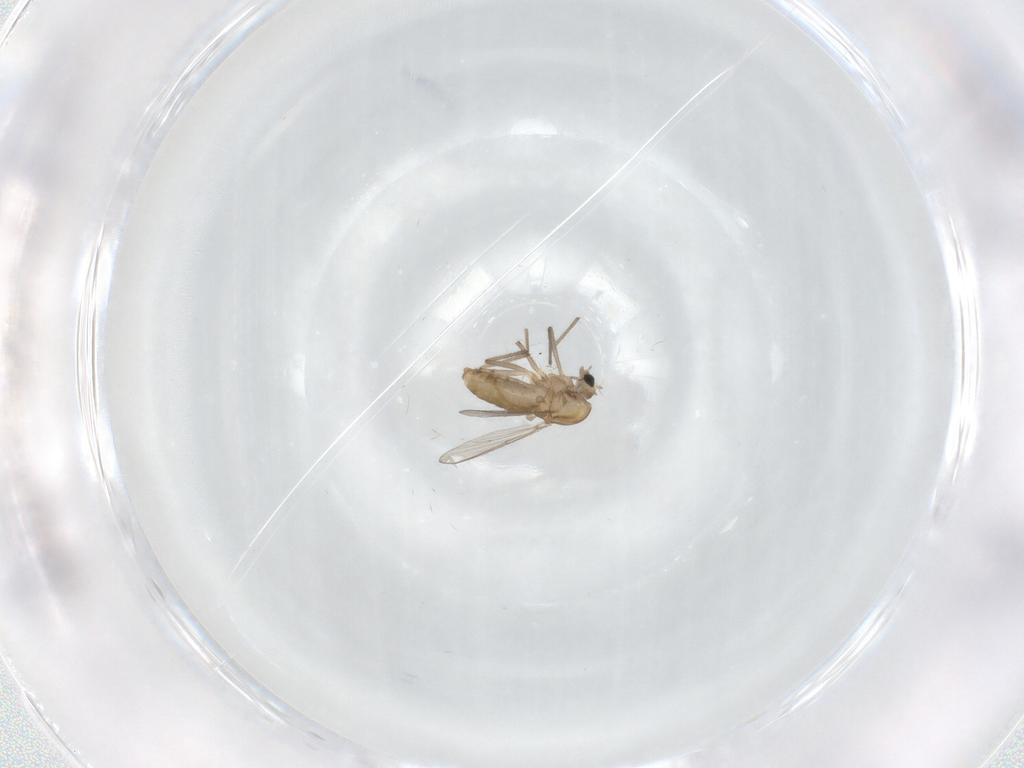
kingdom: Animalia
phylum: Arthropoda
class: Insecta
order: Diptera
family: Chironomidae
